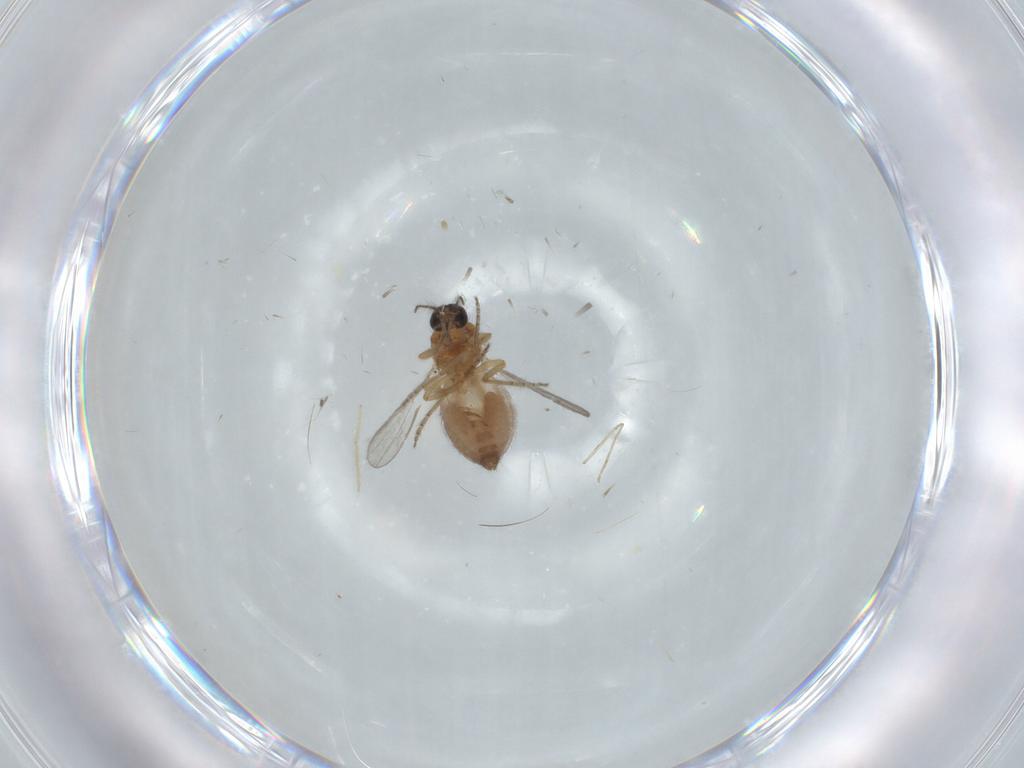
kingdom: Animalia
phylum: Arthropoda
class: Insecta
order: Diptera
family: Ceratopogonidae
